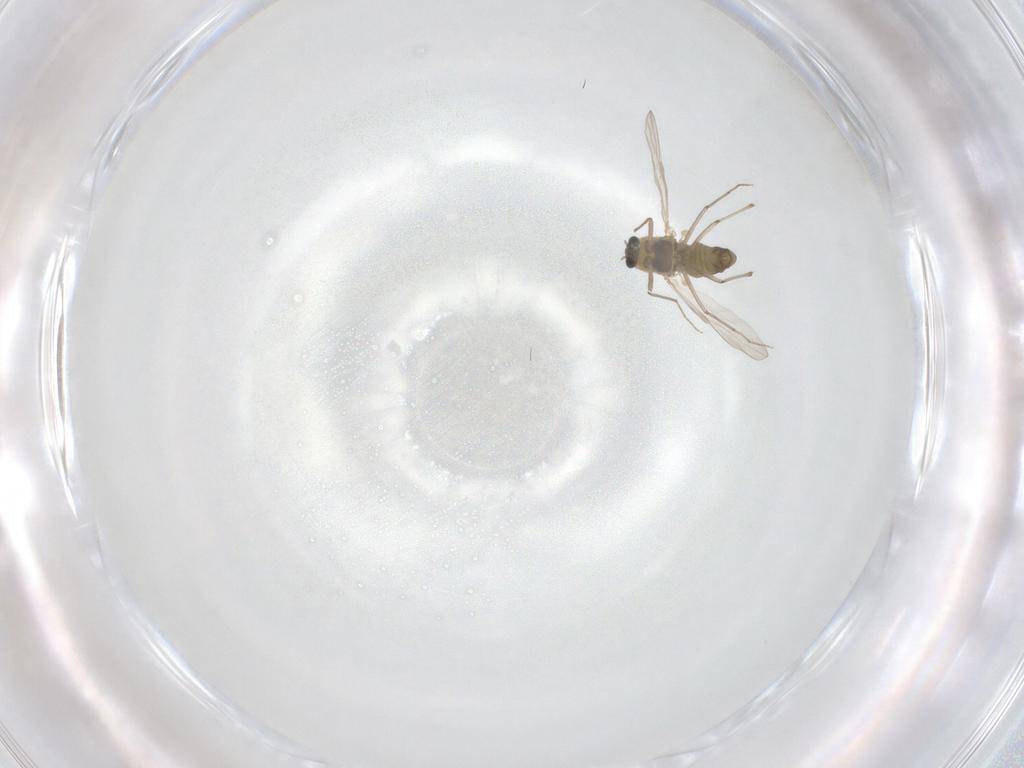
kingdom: Animalia
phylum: Arthropoda
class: Insecta
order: Diptera
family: Chironomidae
